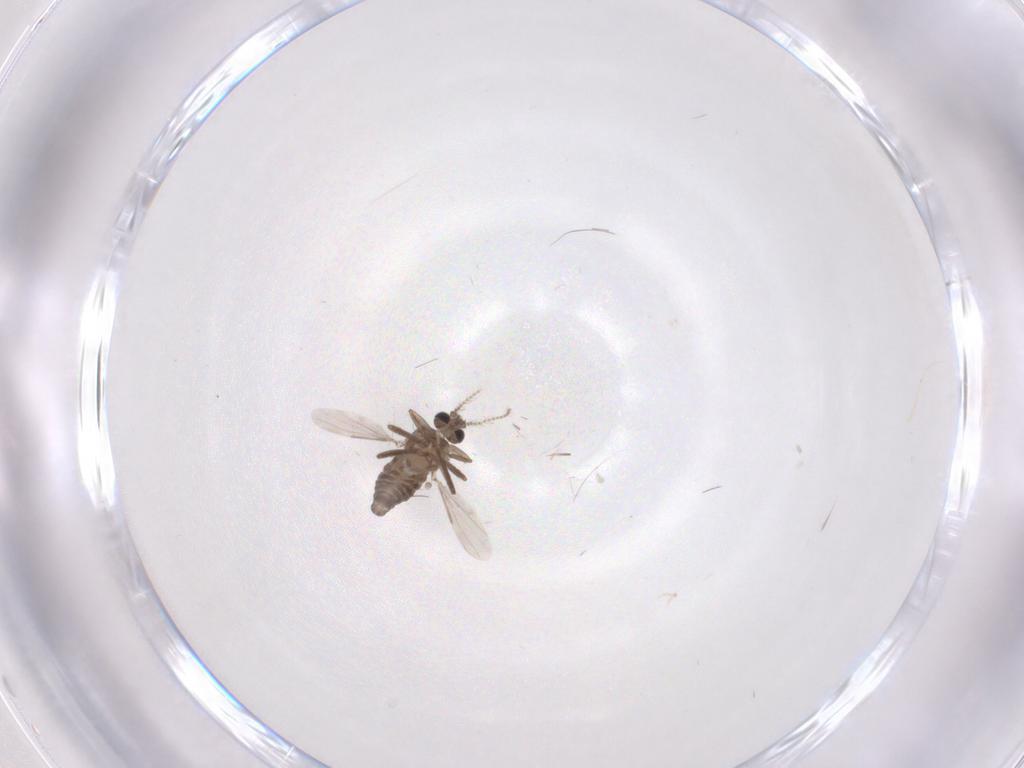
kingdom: Animalia
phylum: Arthropoda
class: Insecta
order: Diptera
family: Ceratopogonidae
